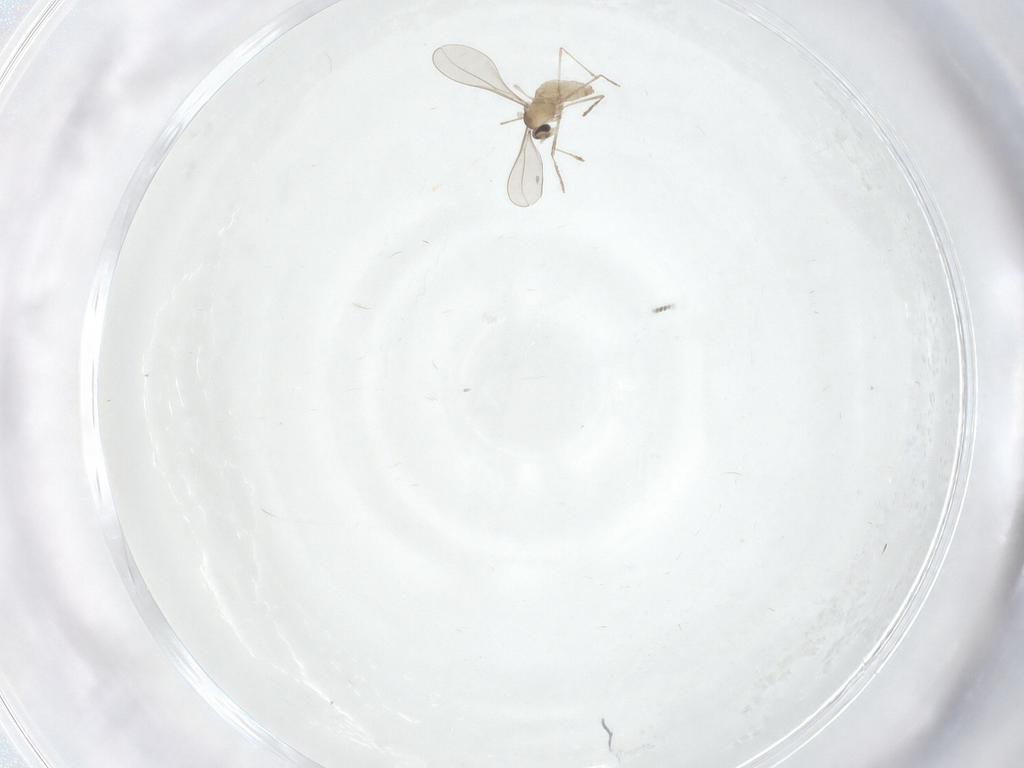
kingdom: Animalia
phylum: Arthropoda
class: Insecta
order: Diptera
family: Cecidomyiidae
